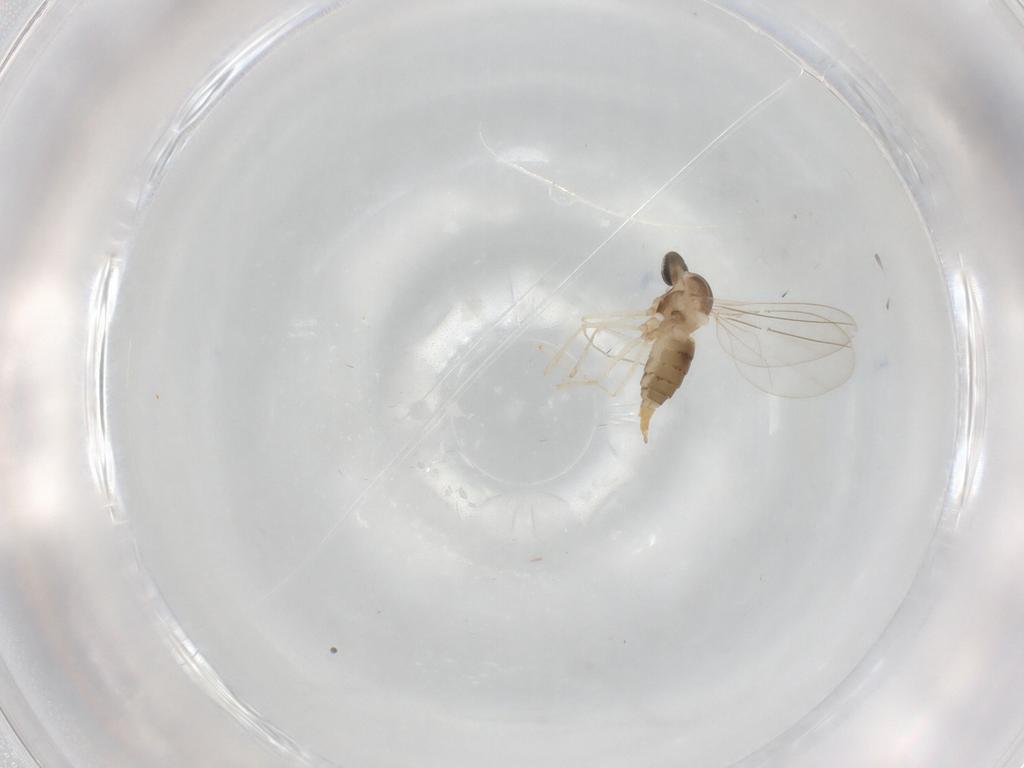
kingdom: Animalia
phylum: Arthropoda
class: Insecta
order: Diptera
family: Cecidomyiidae
